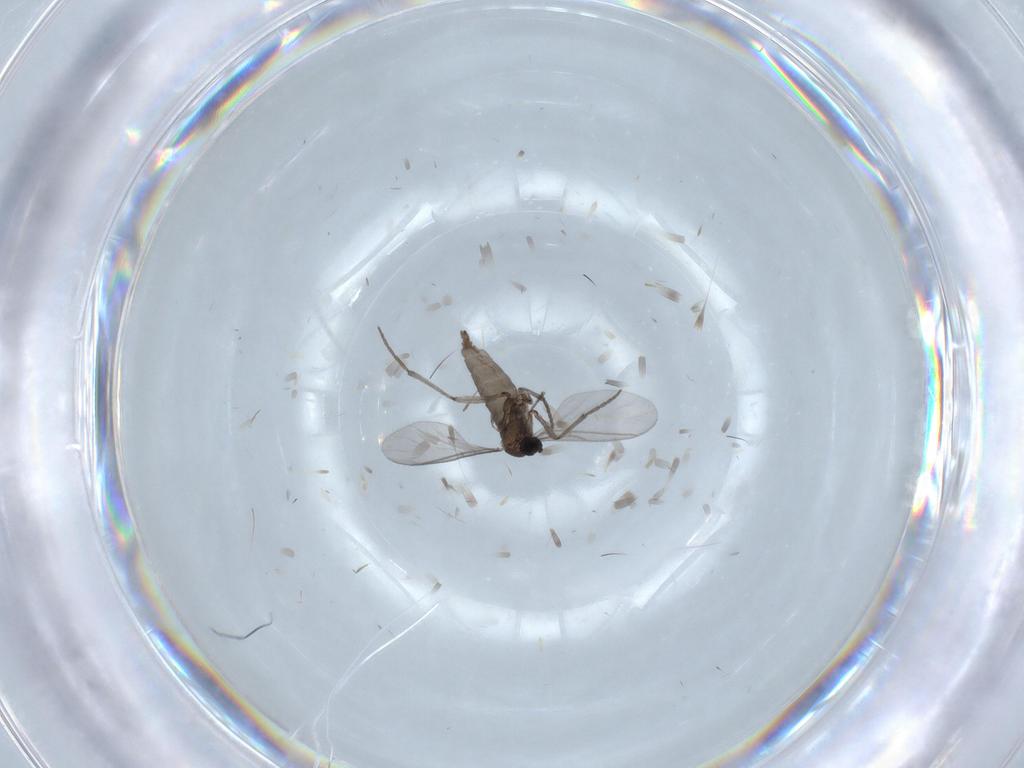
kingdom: Animalia
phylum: Arthropoda
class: Insecta
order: Diptera
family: Sciaridae
